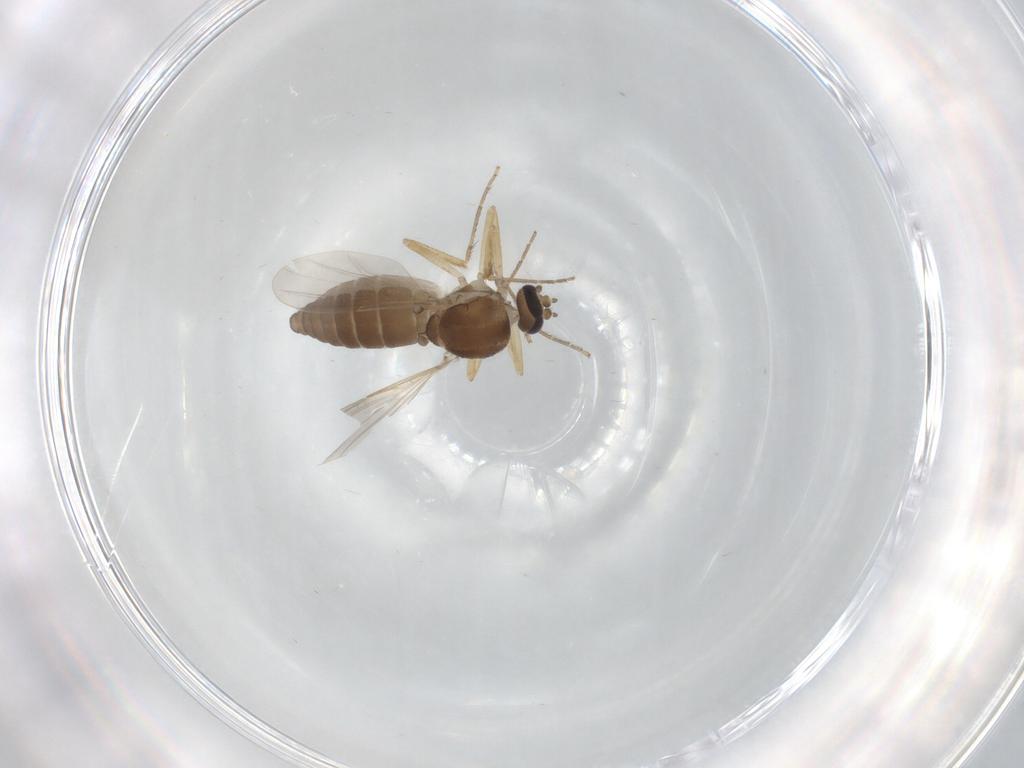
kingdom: Animalia
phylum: Arthropoda
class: Insecta
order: Diptera
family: Ceratopogonidae
